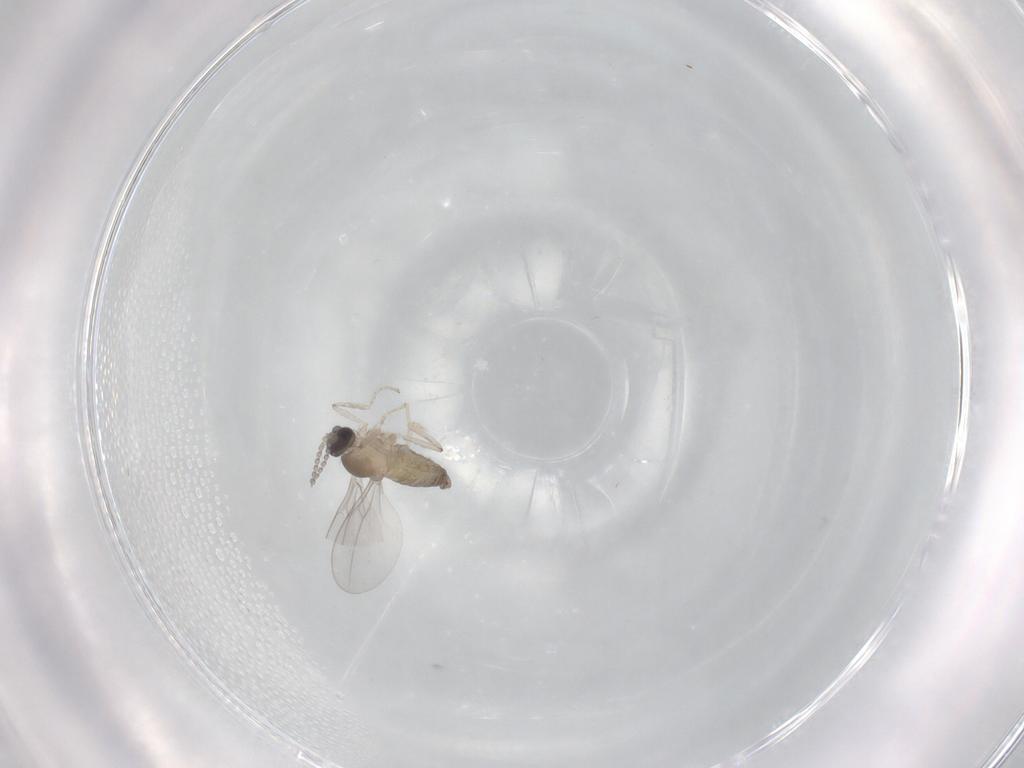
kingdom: Animalia
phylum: Arthropoda
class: Insecta
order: Diptera
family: Cecidomyiidae
